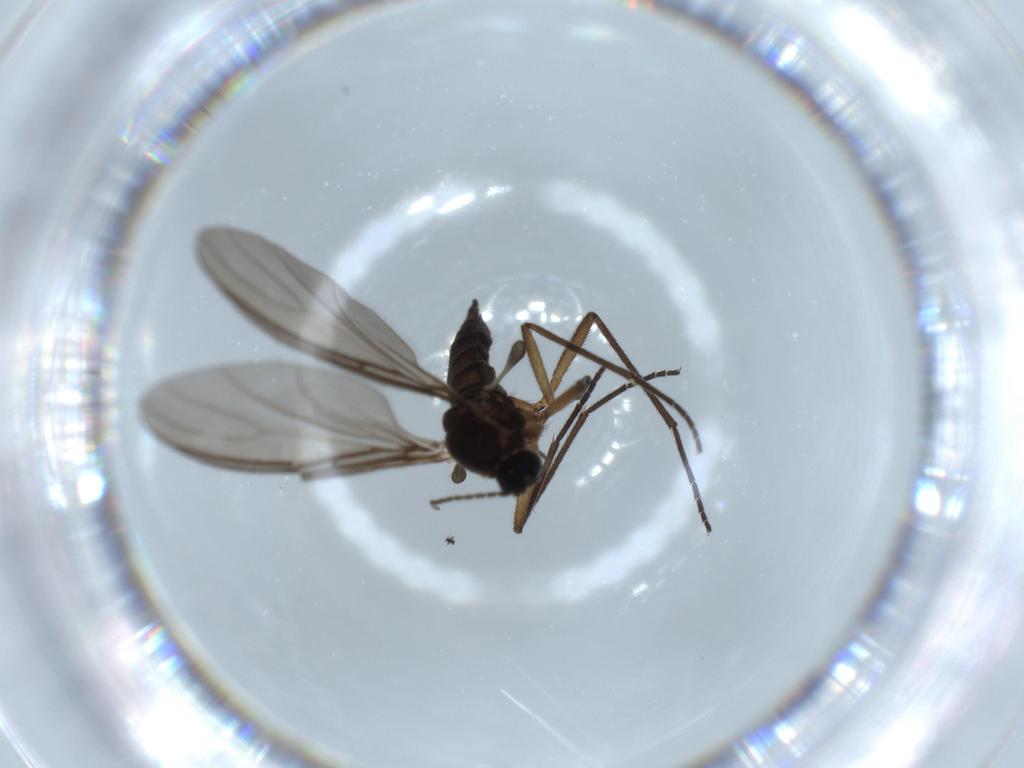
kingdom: Animalia
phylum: Arthropoda
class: Insecta
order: Diptera
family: Sciaridae
